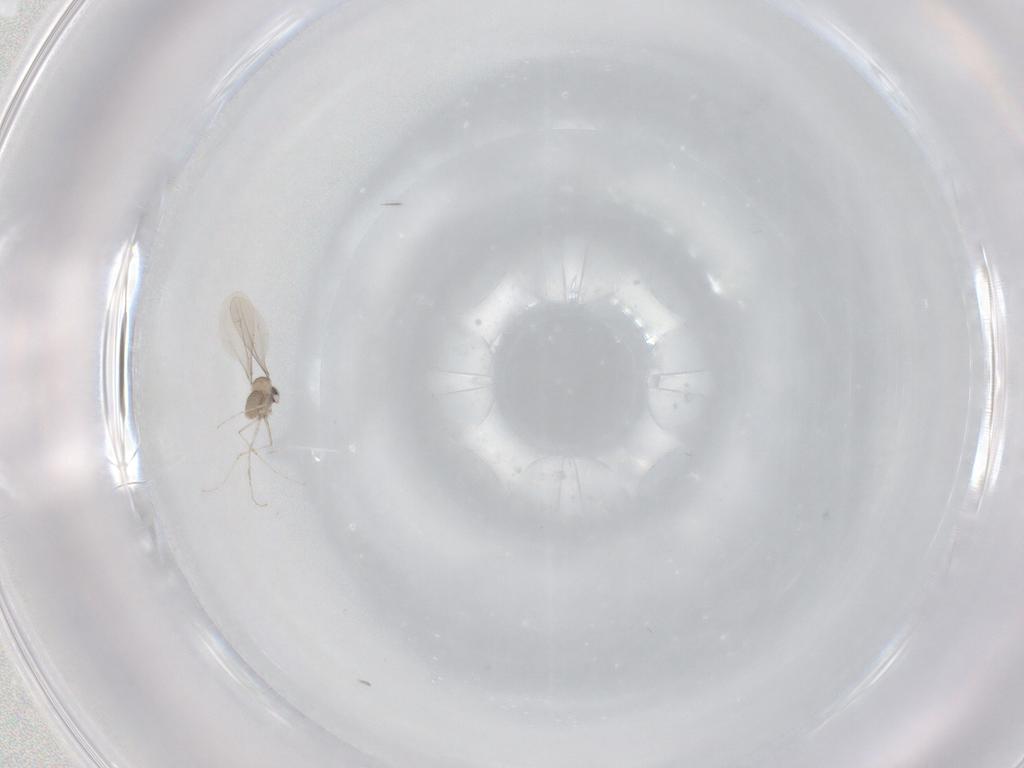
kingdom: Animalia
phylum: Arthropoda
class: Insecta
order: Diptera
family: Cecidomyiidae
